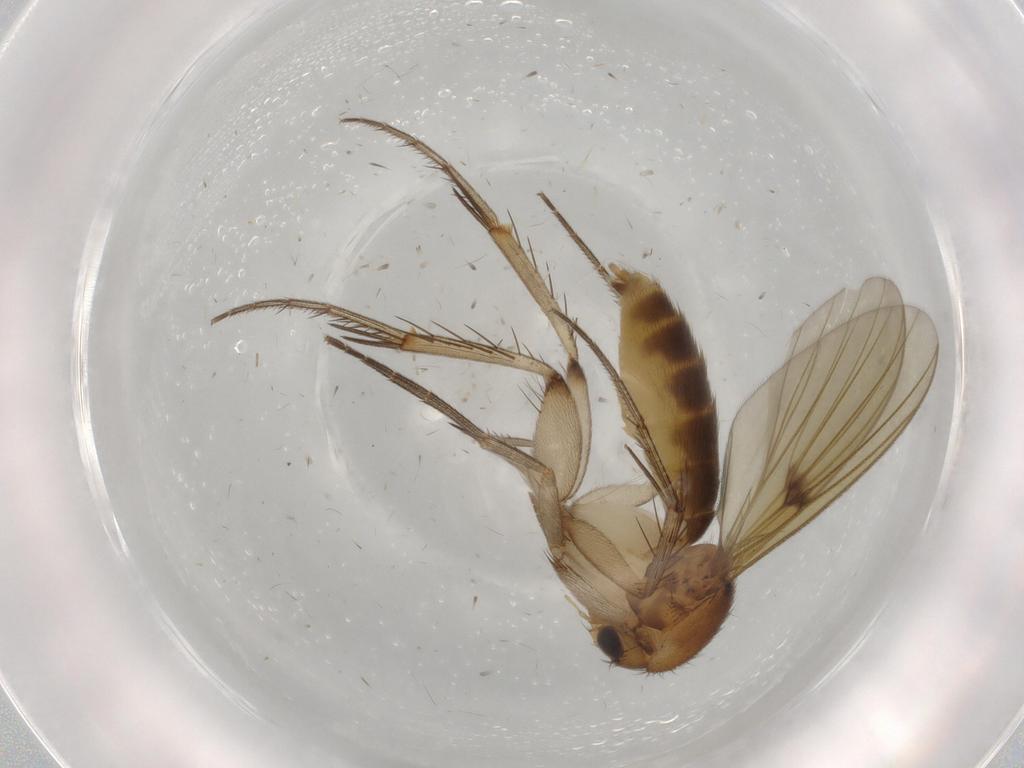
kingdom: Animalia
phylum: Arthropoda
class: Insecta
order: Diptera
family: Mycetophilidae
